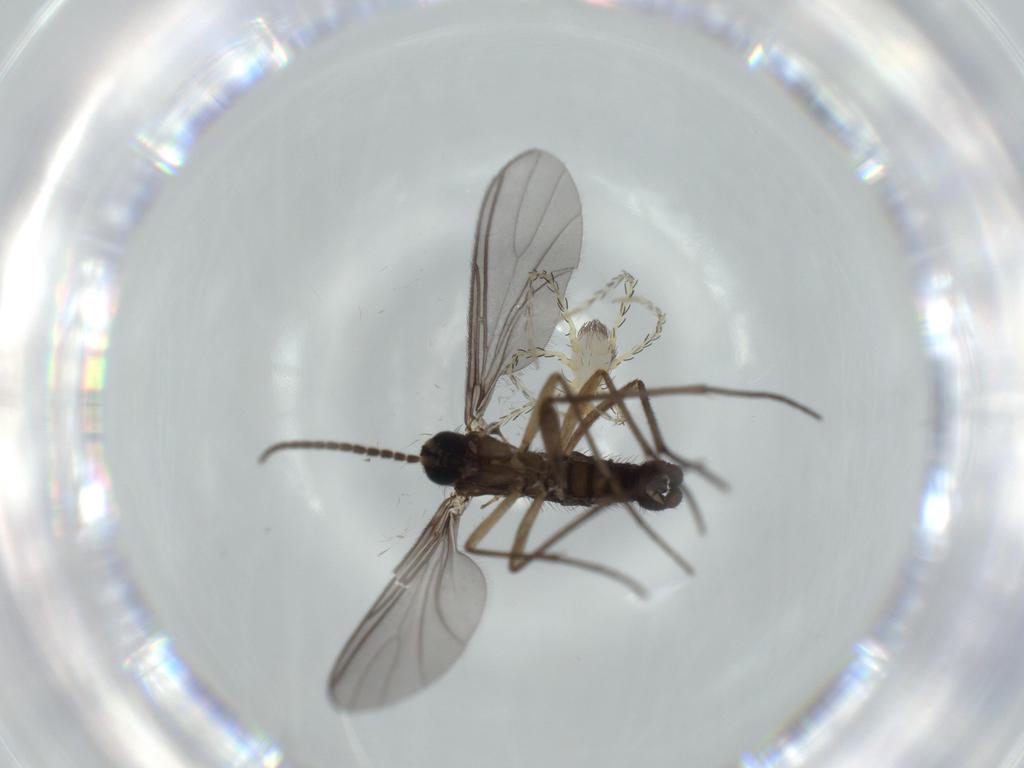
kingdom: Animalia
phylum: Arthropoda
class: Insecta
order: Diptera
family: Sciaridae
